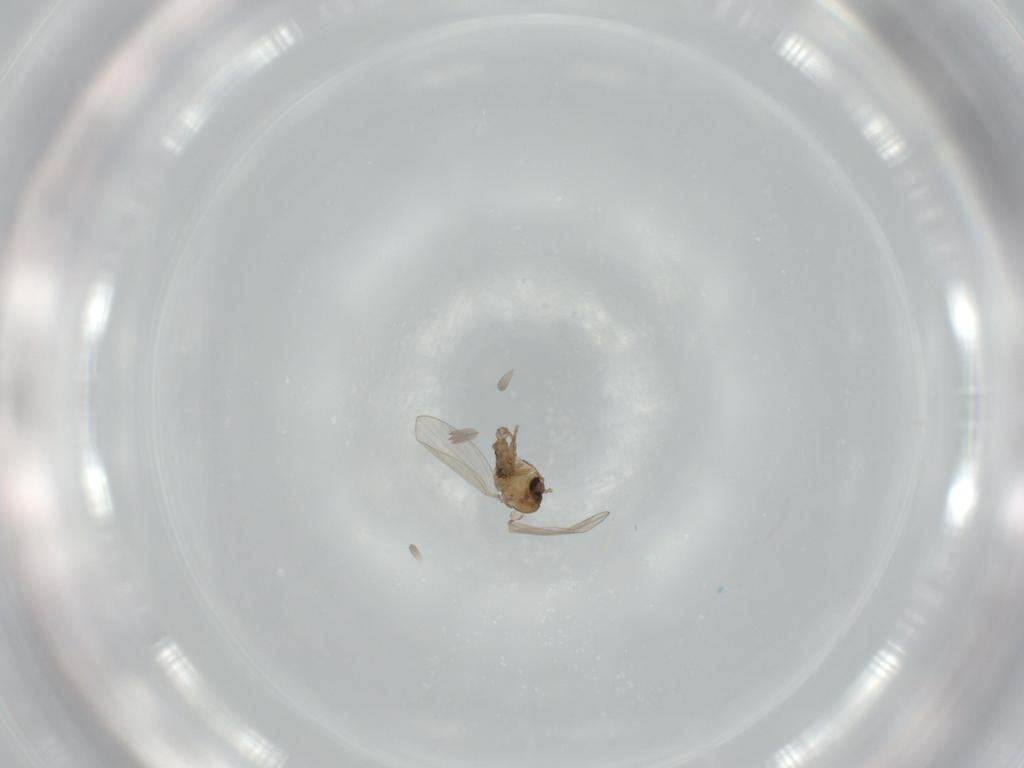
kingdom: Animalia
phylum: Arthropoda
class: Insecta
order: Diptera
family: Psychodidae
